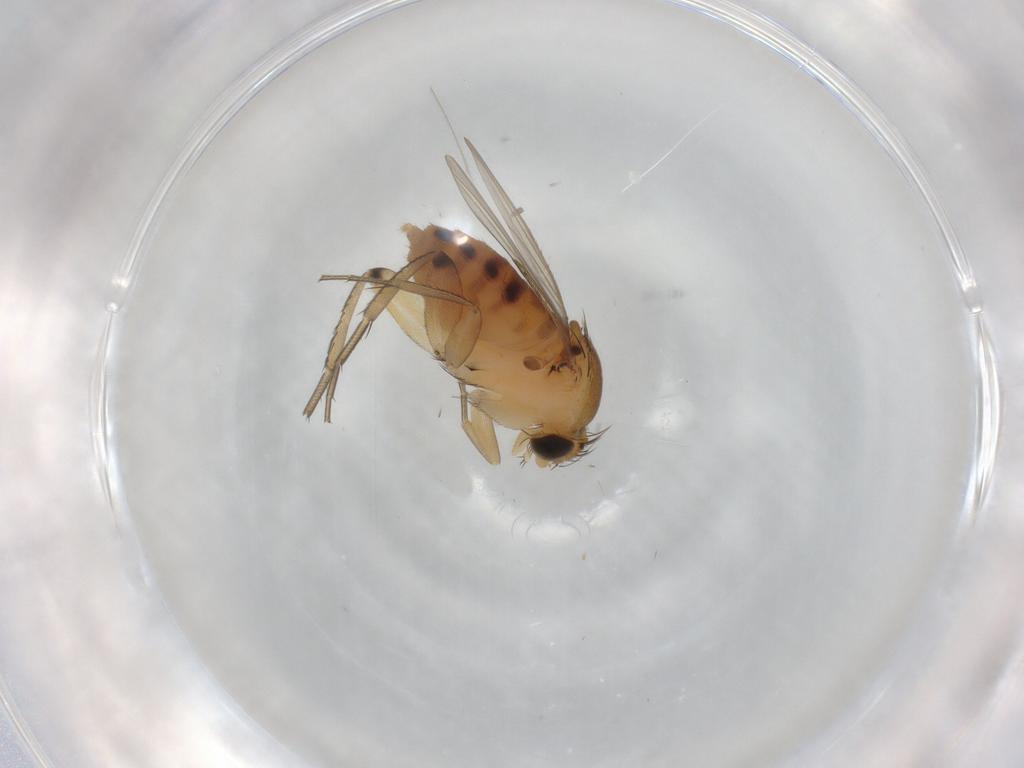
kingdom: Animalia
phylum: Arthropoda
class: Insecta
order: Diptera
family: Phoridae
